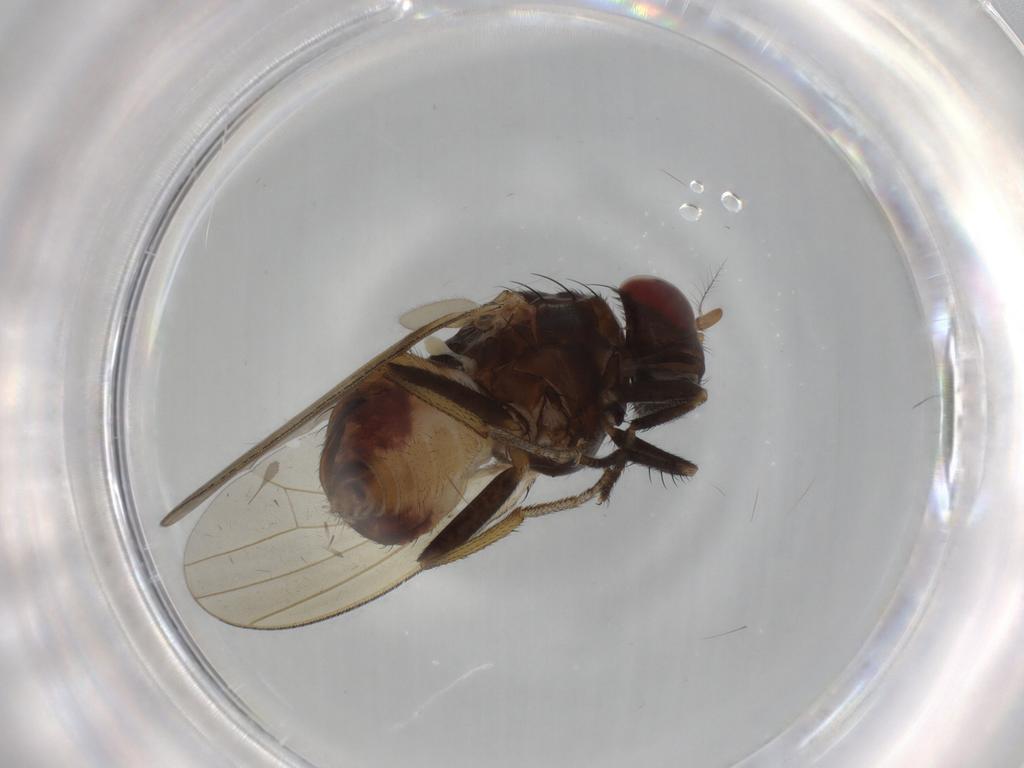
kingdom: Animalia
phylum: Arthropoda
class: Insecta
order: Diptera
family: Lauxaniidae
